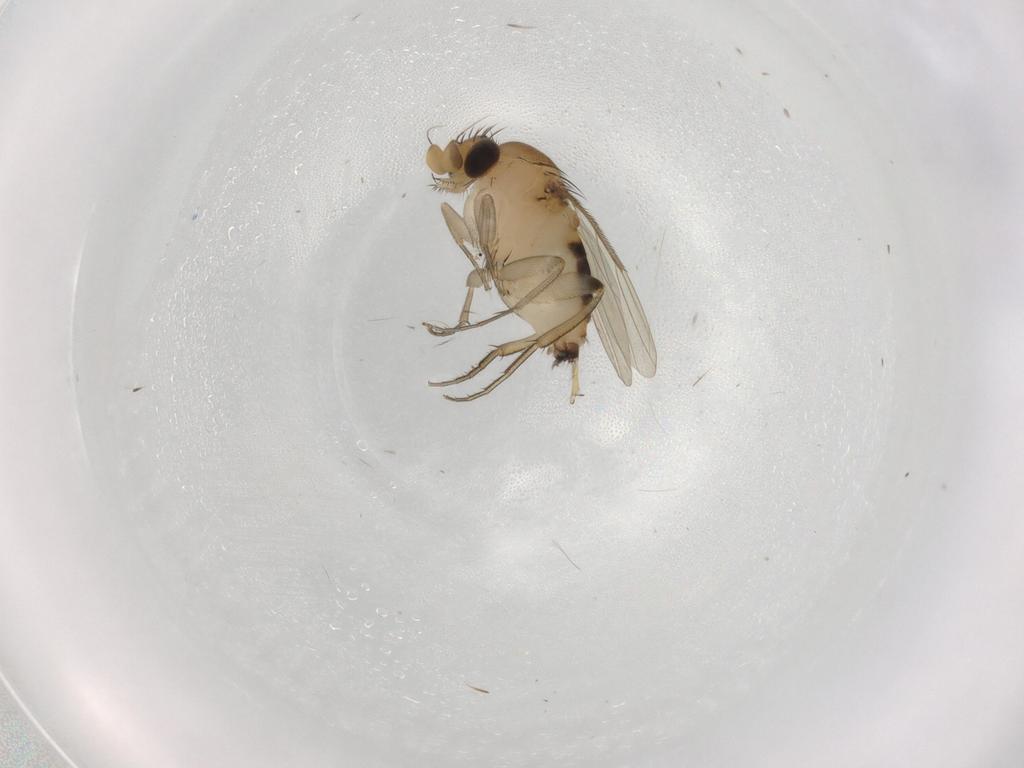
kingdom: Animalia
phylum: Arthropoda
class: Insecta
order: Diptera
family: Phoridae
